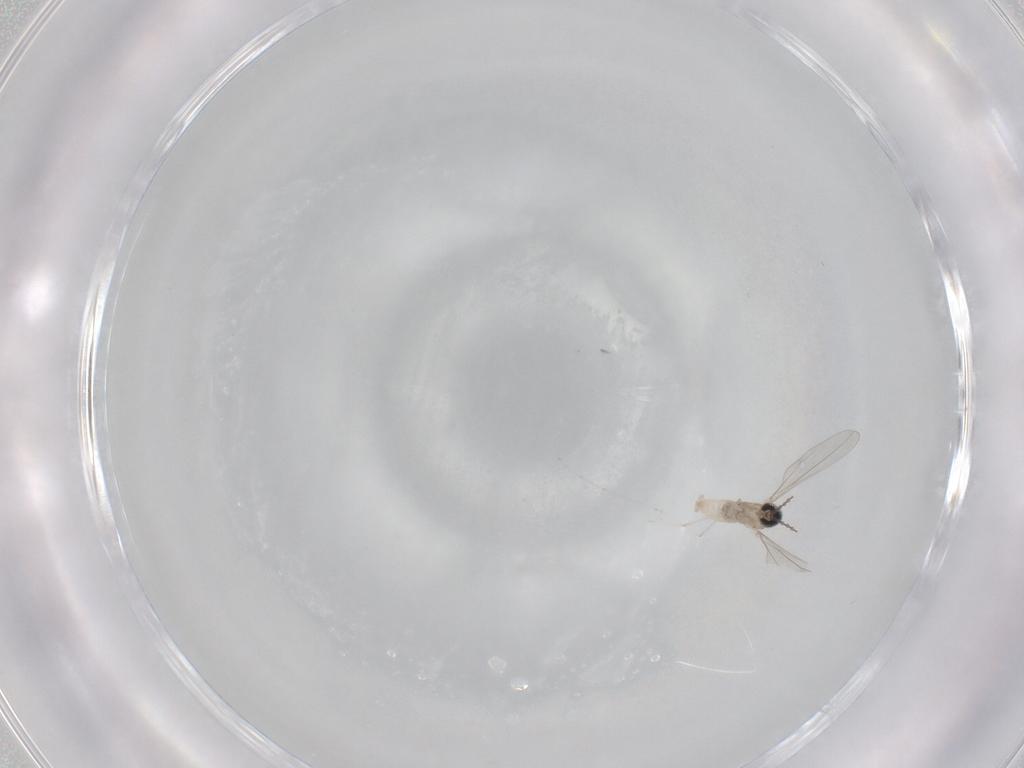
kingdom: Animalia
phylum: Arthropoda
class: Insecta
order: Diptera
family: Cecidomyiidae
